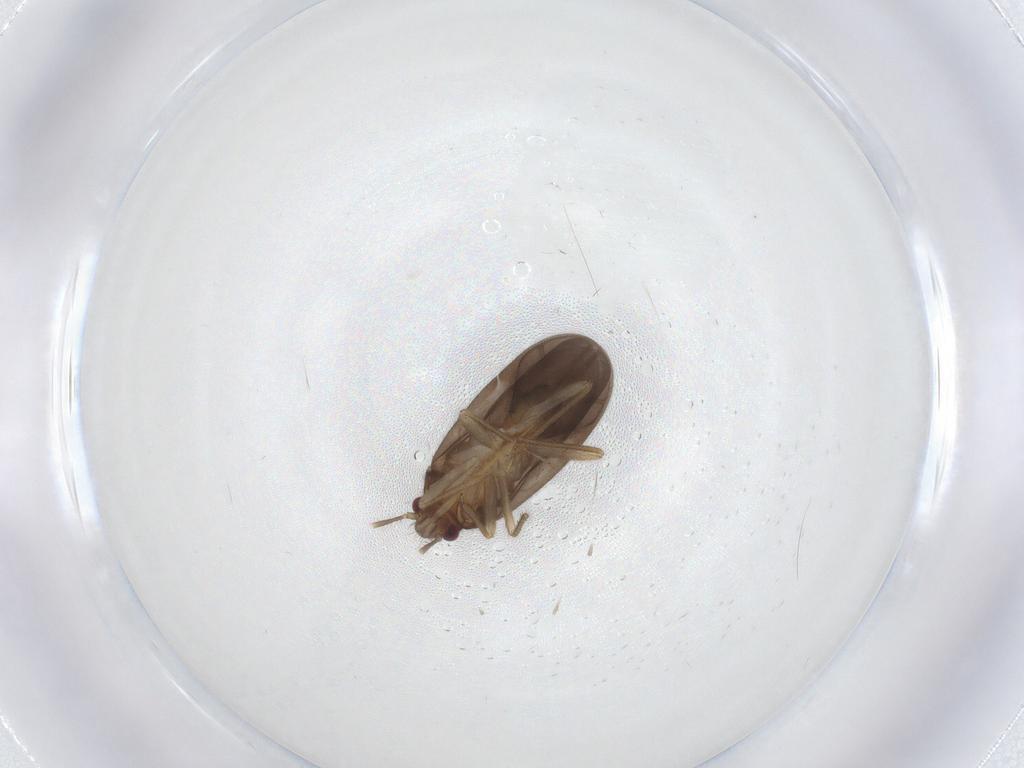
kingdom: Animalia
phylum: Arthropoda
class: Insecta
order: Hemiptera
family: Ceratocombidae
